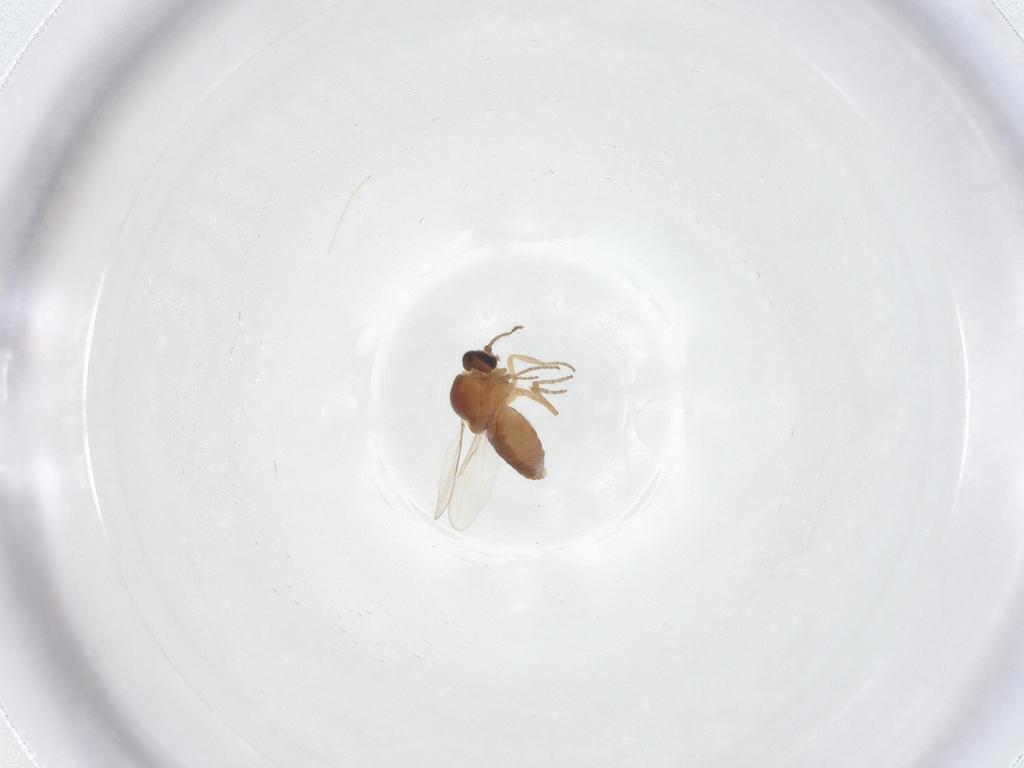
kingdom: Animalia
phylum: Arthropoda
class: Insecta
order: Diptera
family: Ceratopogonidae
